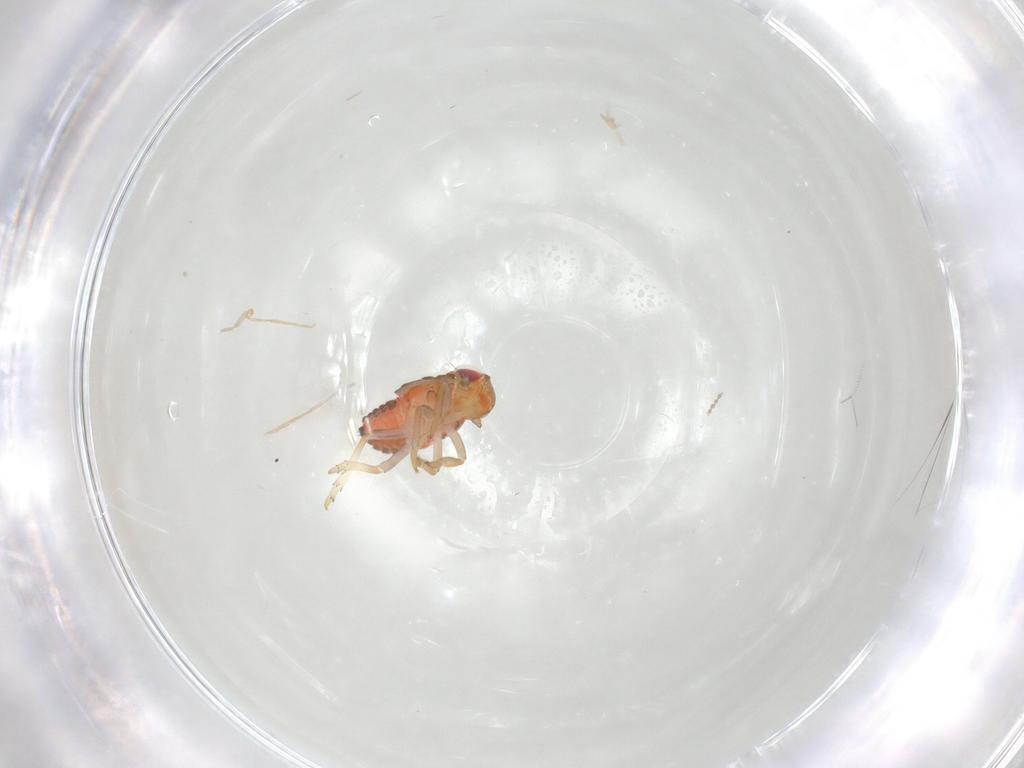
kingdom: Animalia
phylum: Arthropoda
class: Insecta
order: Hemiptera
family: Issidae
